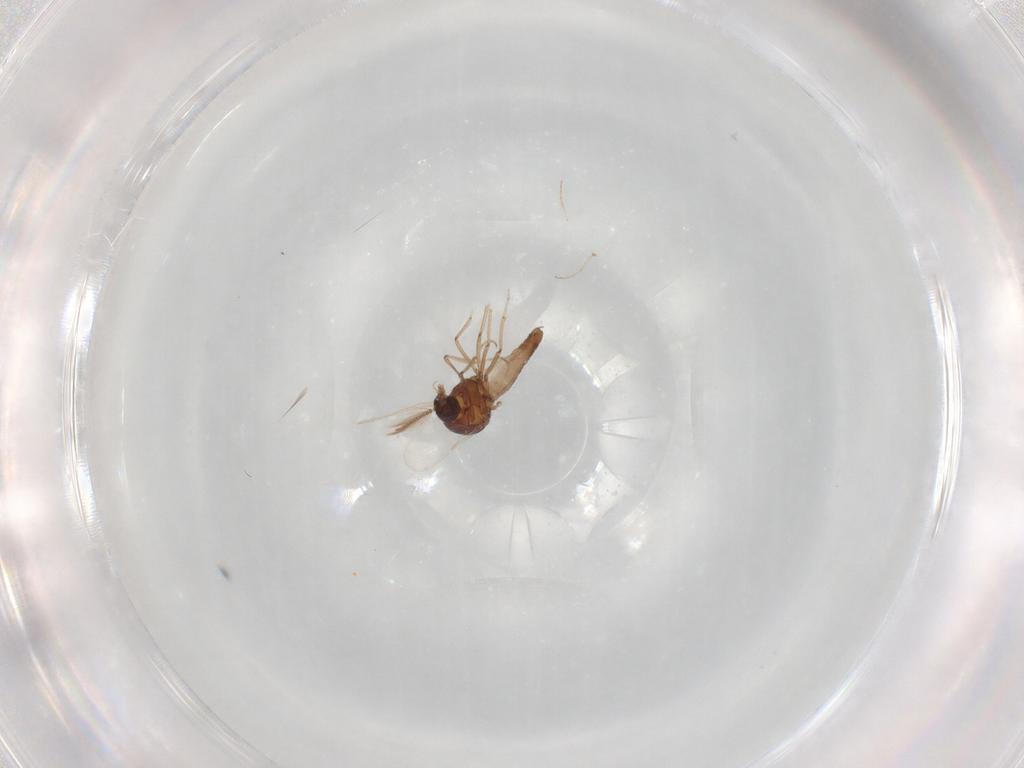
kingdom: Animalia
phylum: Arthropoda
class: Insecta
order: Diptera
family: Ceratopogonidae
